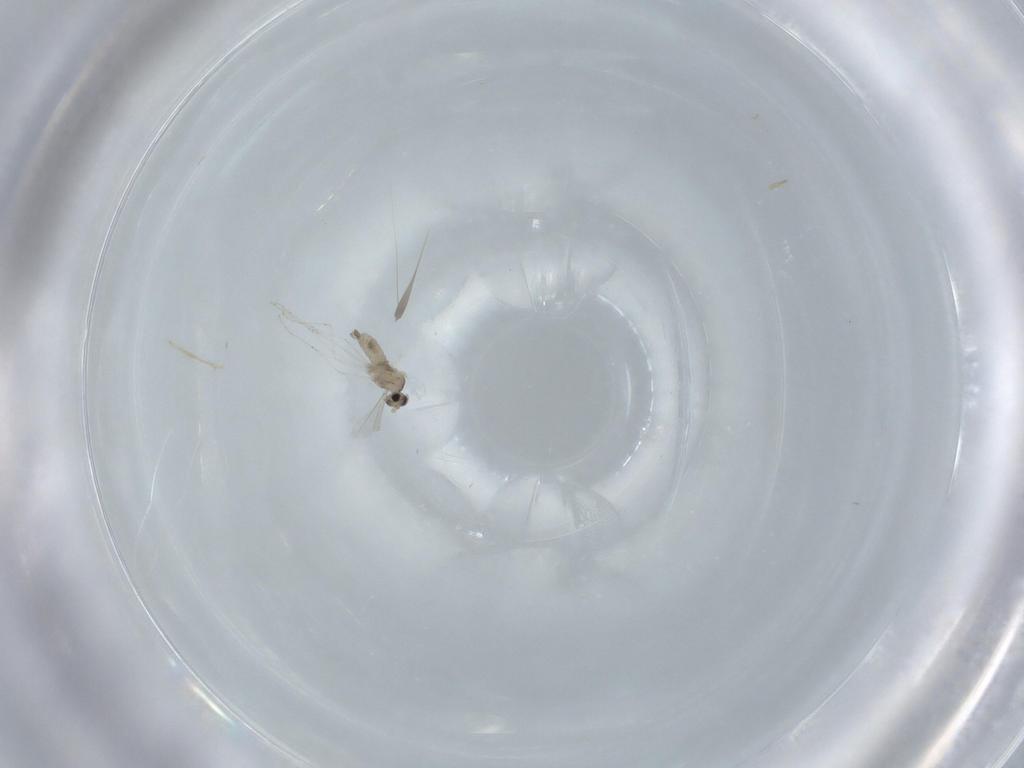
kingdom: Animalia
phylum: Arthropoda
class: Insecta
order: Diptera
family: Cecidomyiidae
